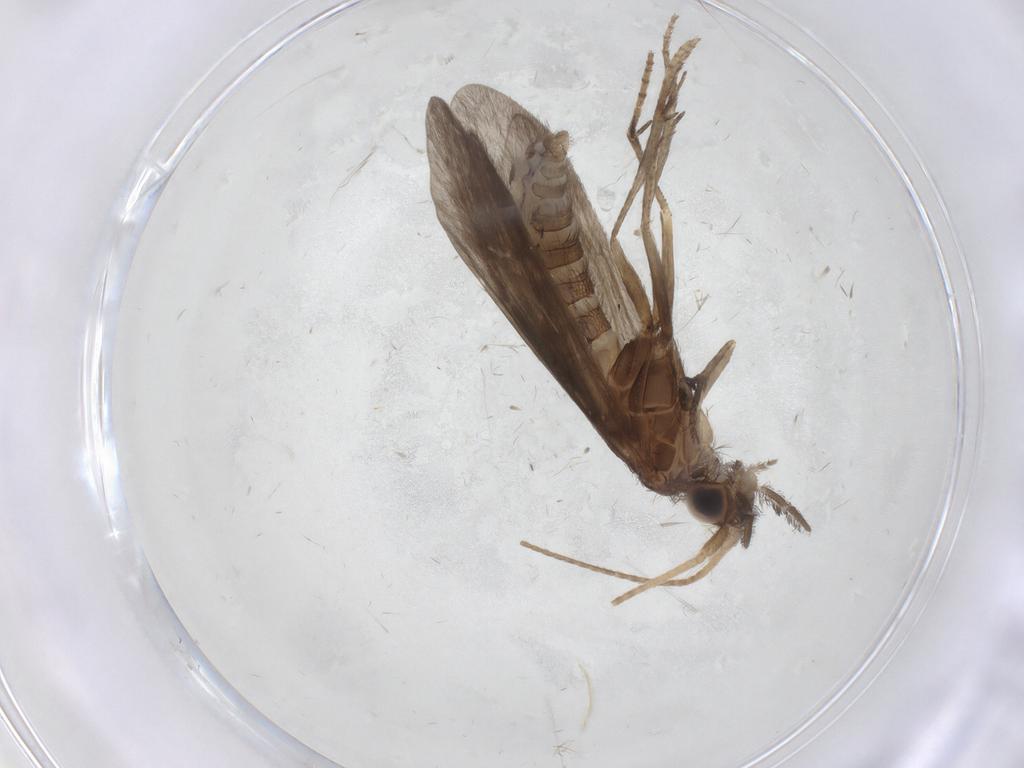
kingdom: Animalia
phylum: Arthropoda
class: Insecta
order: Trichoptera
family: Helicopsychidae
